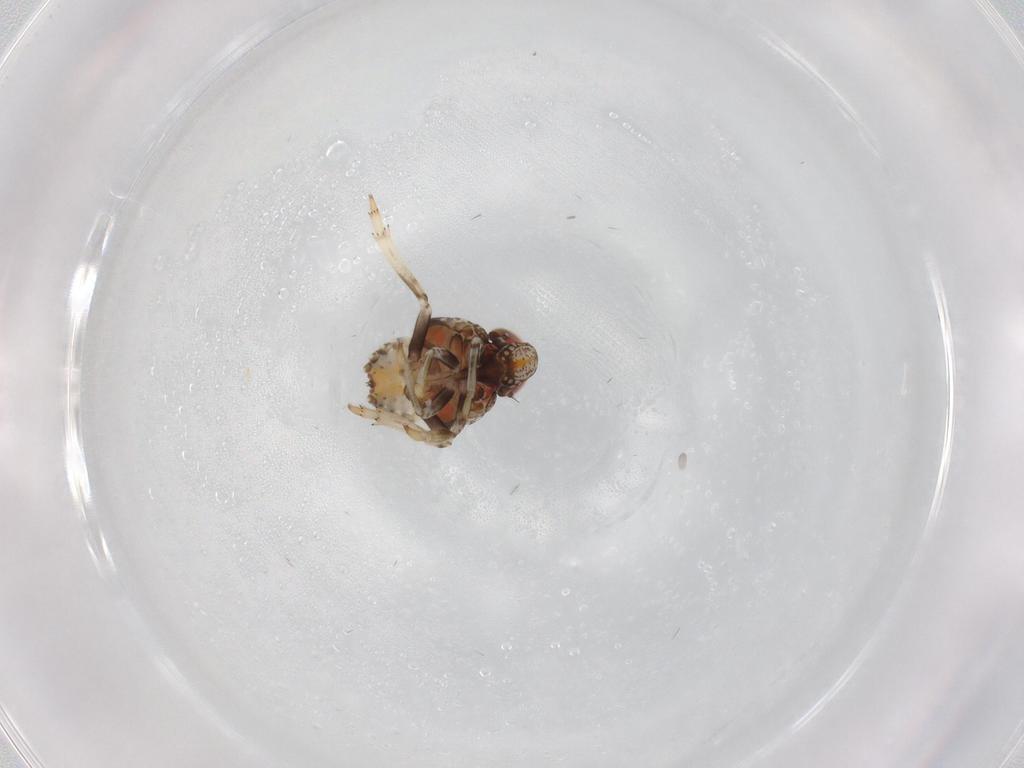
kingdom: Animalia
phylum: Arthropoda
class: Insecta
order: Hemiptera
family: Issidae
